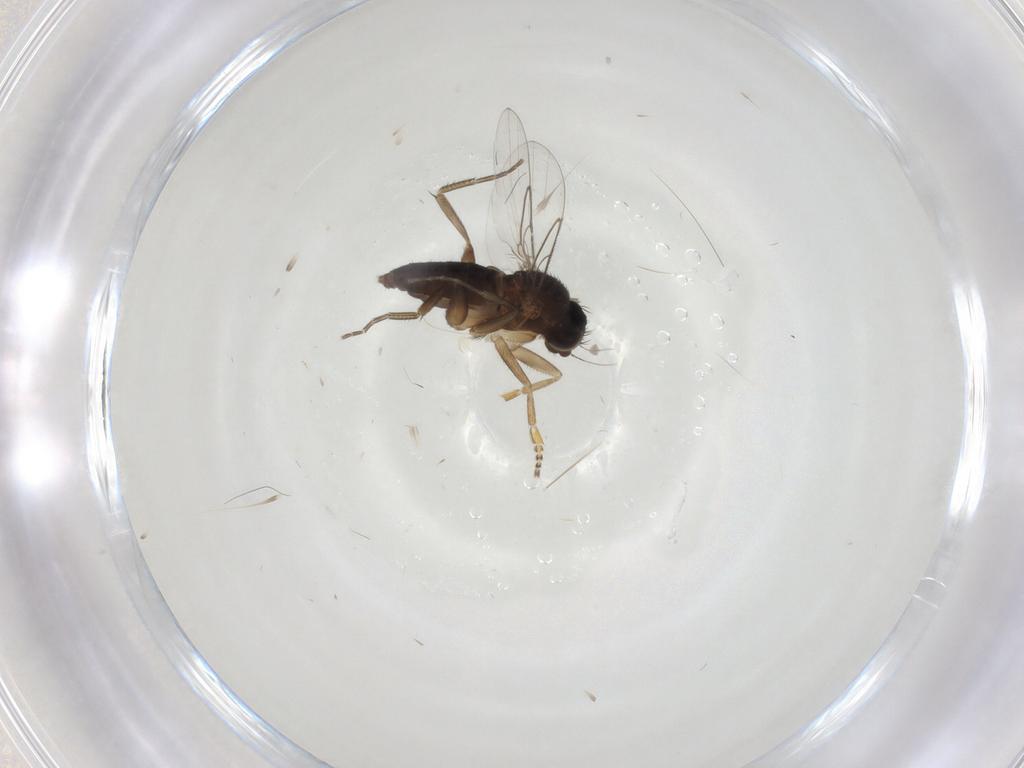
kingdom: Animalia
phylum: Arthropoda
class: Insecta
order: Diptera
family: Phoridae
